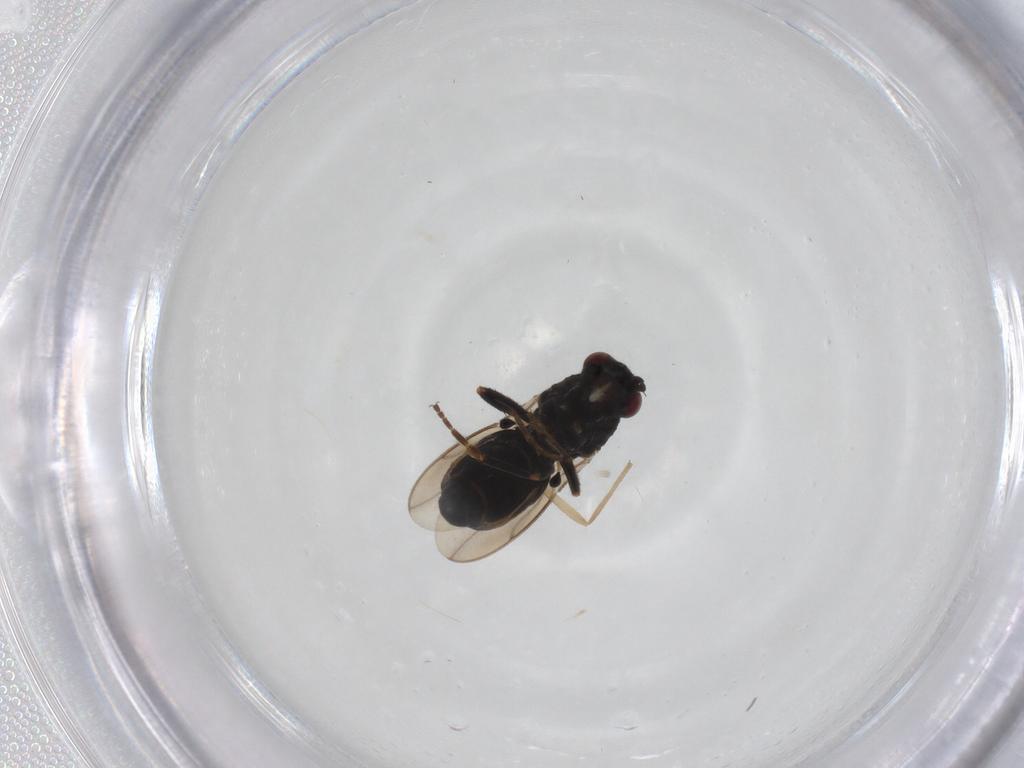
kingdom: Animalia
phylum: Arthropoda
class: Insecta
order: Diptera
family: Sphaeroceridae
